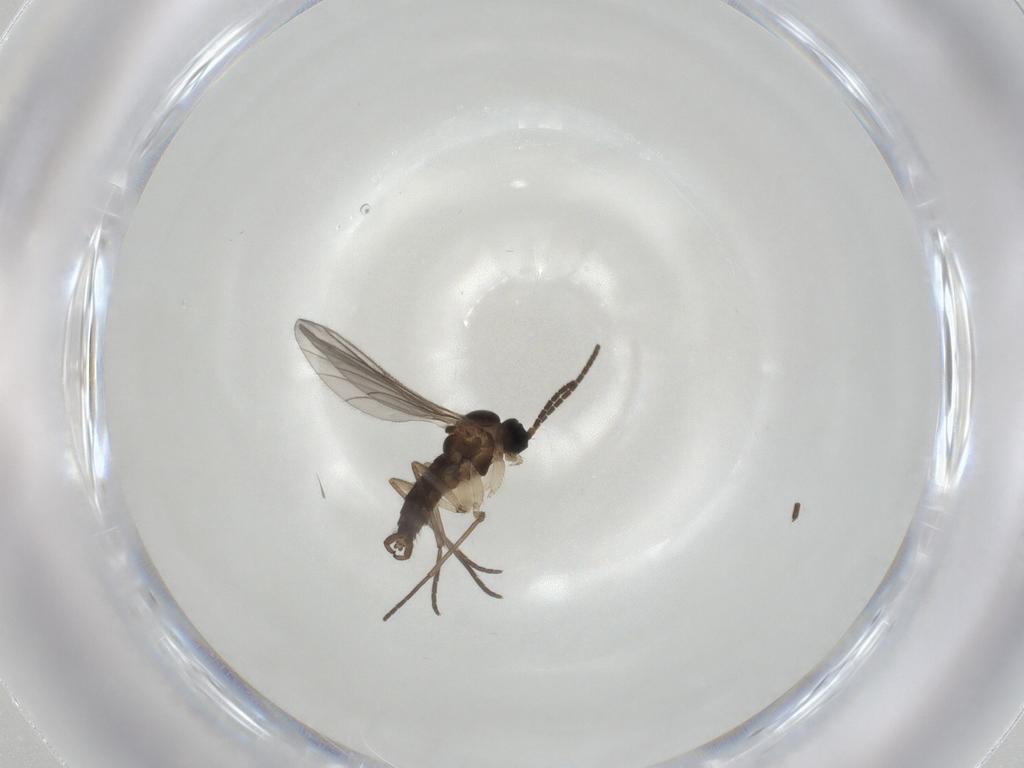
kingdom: Animalia
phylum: Arthropoda
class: Insecta
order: Diptera
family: Sciaridae
